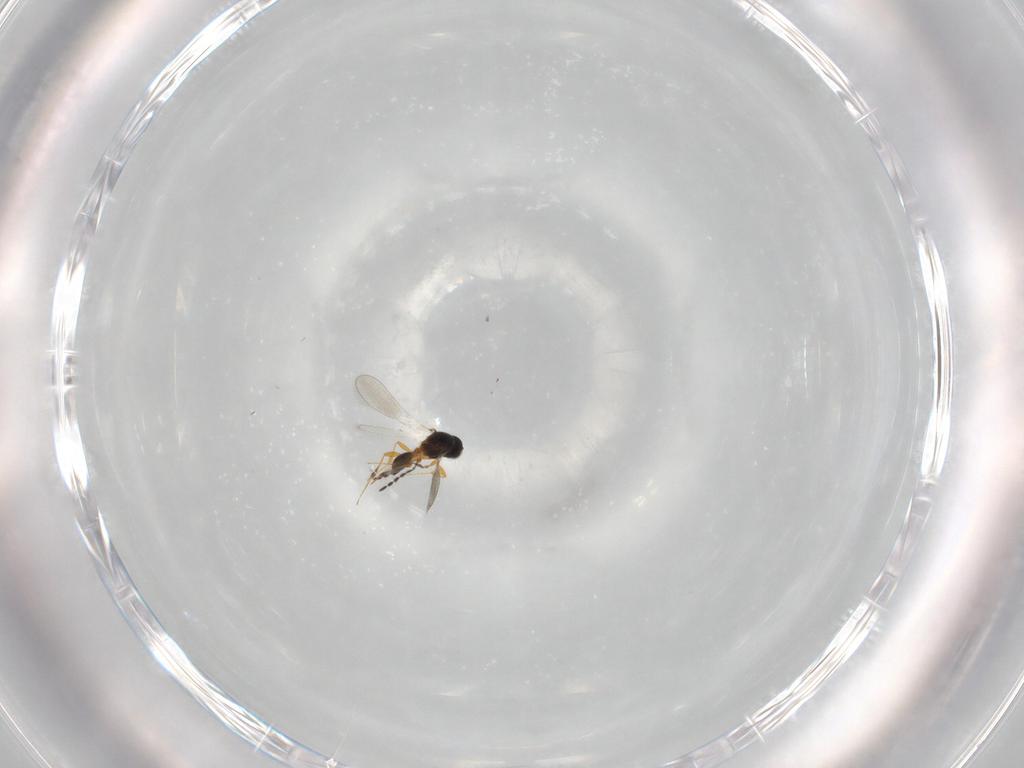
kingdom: Animalia
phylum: Arthropoda
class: Insecta
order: Hymenoptera
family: Platygastridae
